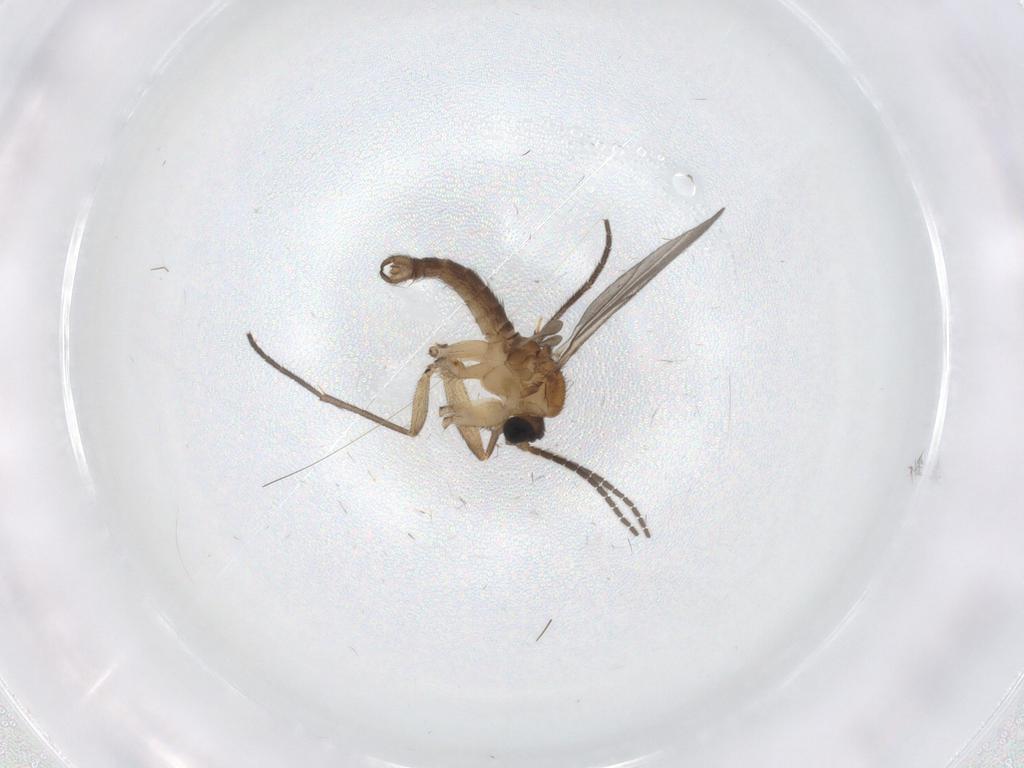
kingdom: Animalia
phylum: Arthropoda
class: Insecta
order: Diptera
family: Sciaridae
